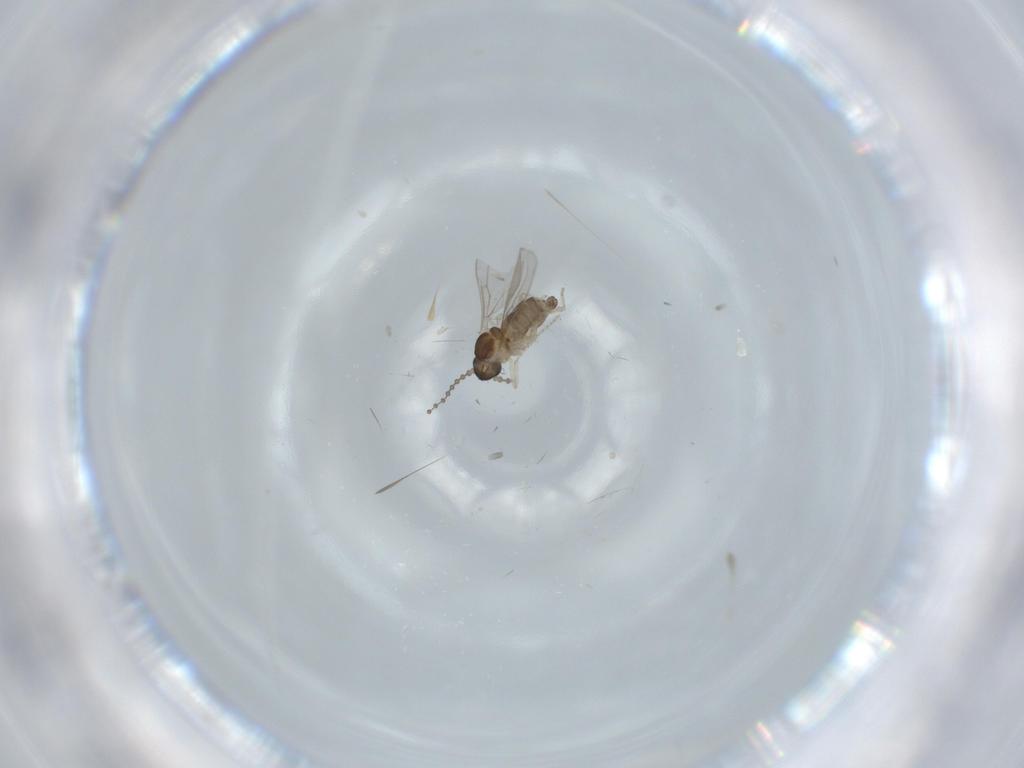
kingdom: Animalia
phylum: Arthropoda
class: Insecta
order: Diptera
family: Cecidomyiidae
